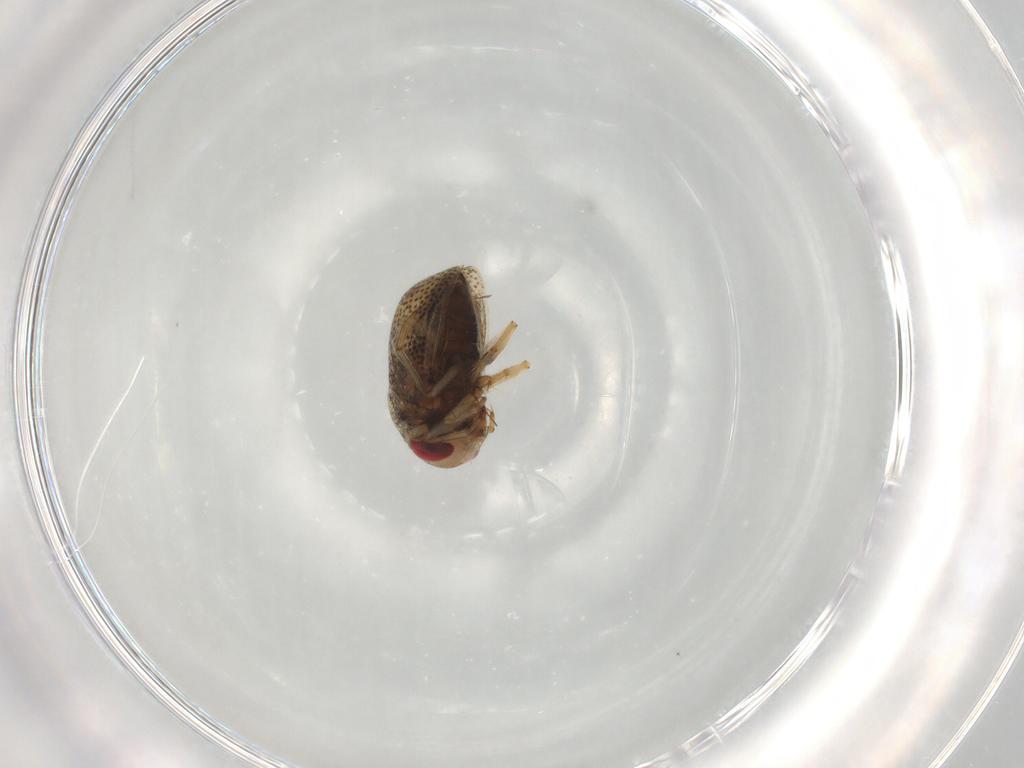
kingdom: Animalia
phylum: Arthropoda
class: Insecta
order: Hemiptera
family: Pleidae
